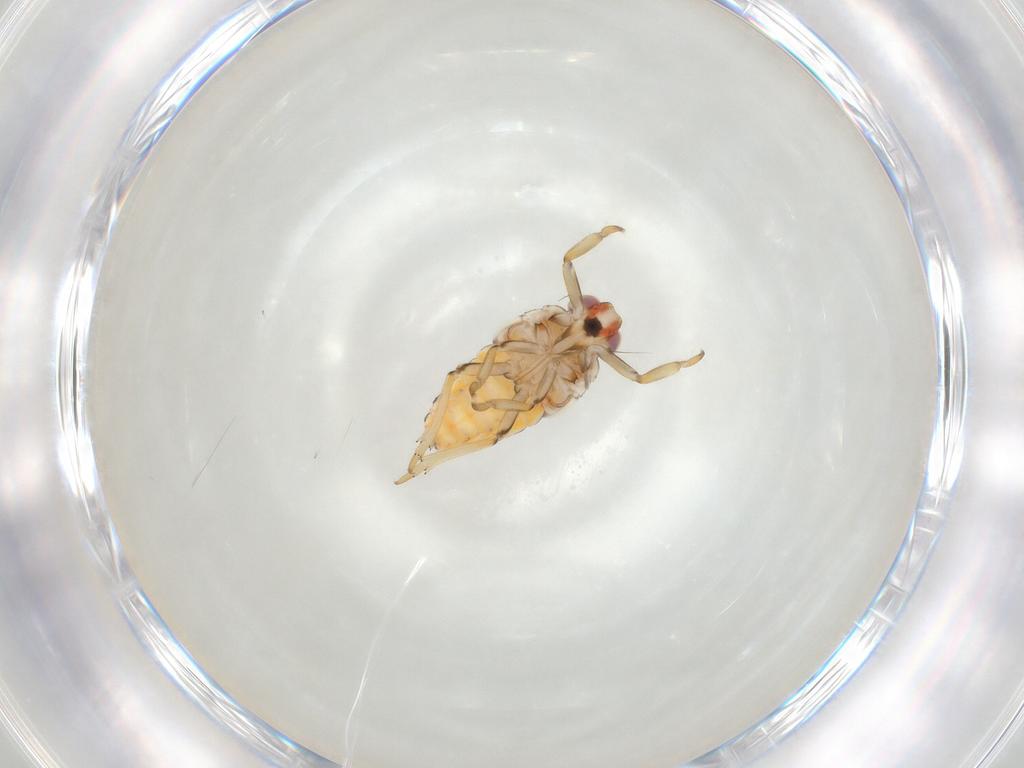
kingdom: Animalia
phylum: Arthropoda
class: Insecta
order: Hemiptera
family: Issidae
